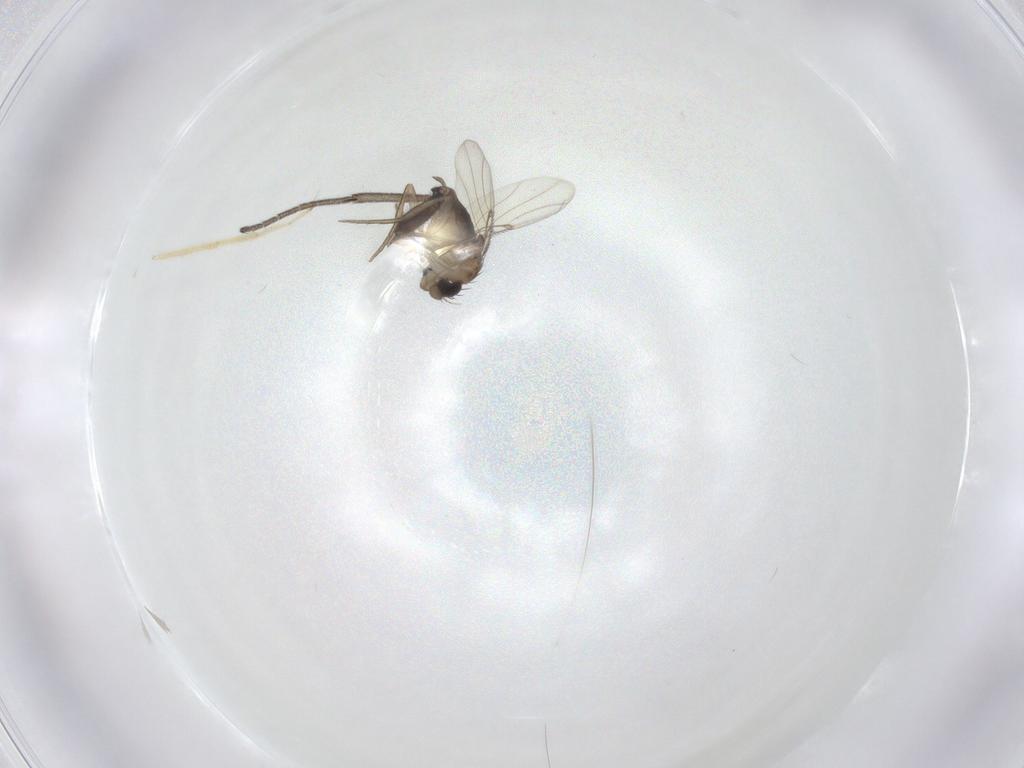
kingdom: Animalia
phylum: Arthropoda
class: Insecta
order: Diptera
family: Mycetophilidae
